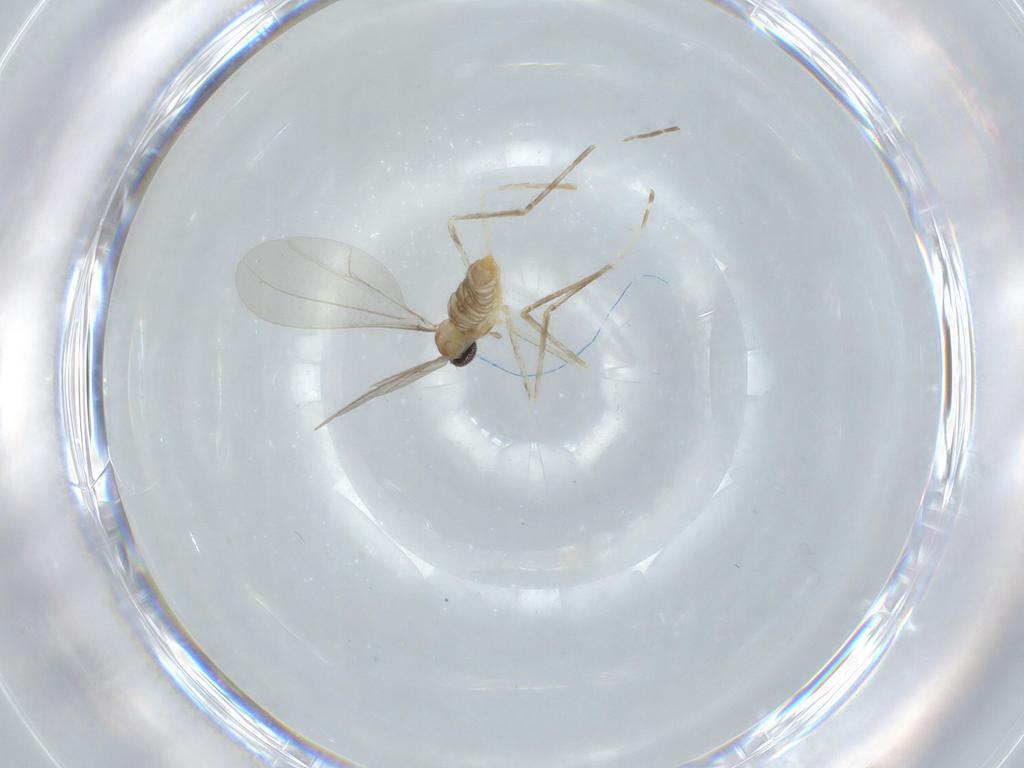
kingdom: Animalia
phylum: Arthropoda
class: Insecta
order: Diptera
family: Cecidomyiidae
